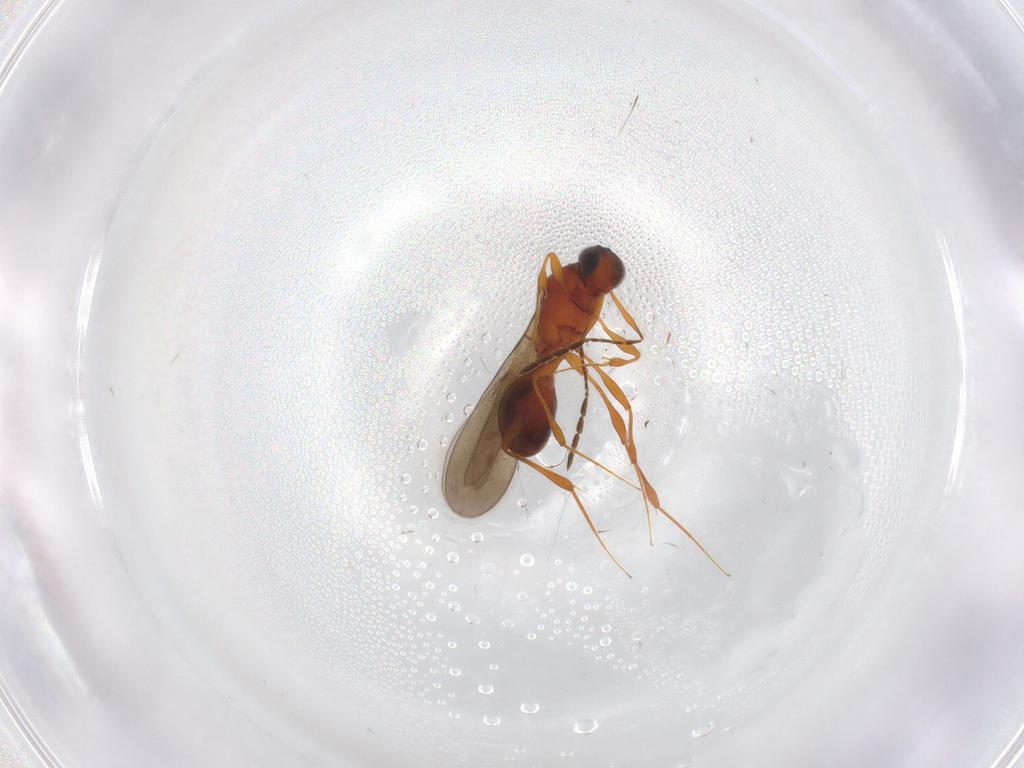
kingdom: Animalia
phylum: Arthropoda
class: Insecta
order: Hymenoptera
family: Platygastridae
